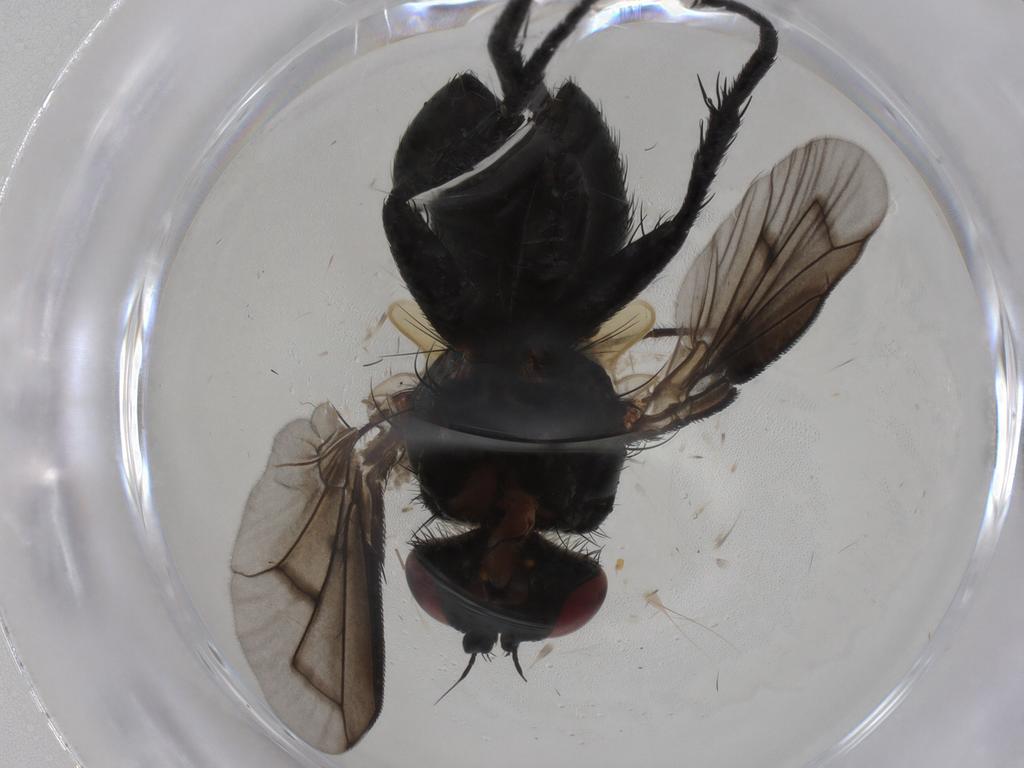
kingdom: Animalia
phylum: Arthropoda
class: Insecta
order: Diptera
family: Tachinidae
